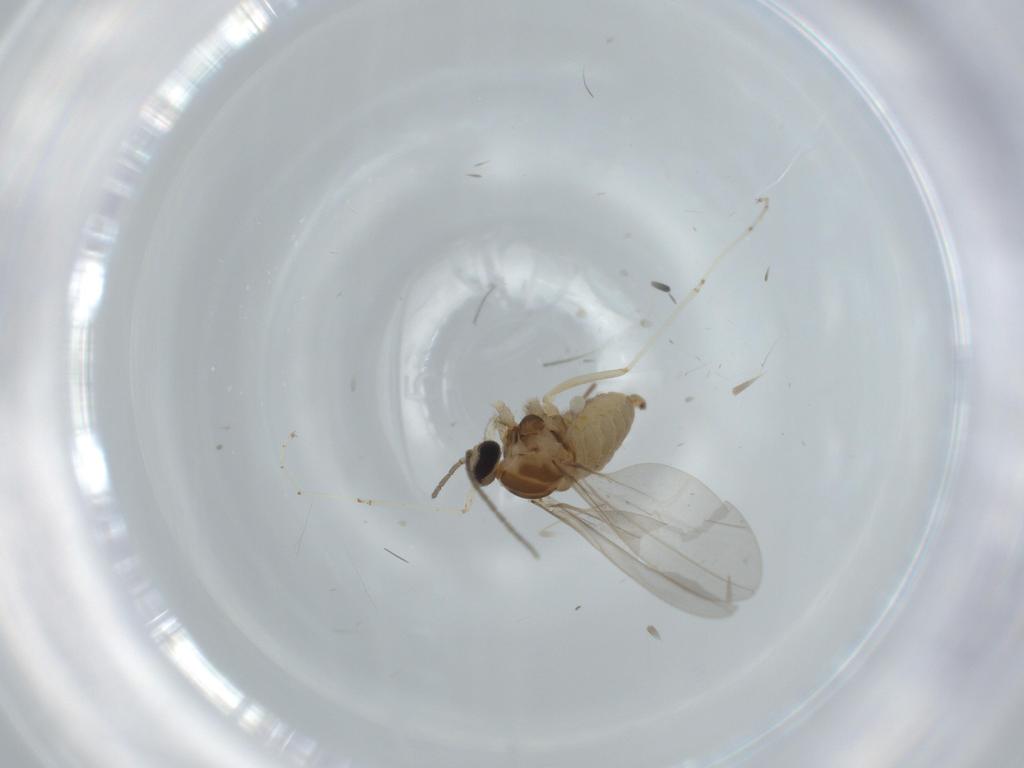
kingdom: Animalia
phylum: Arthropoda
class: Insecta
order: Diptera
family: Cecidomyiidae
